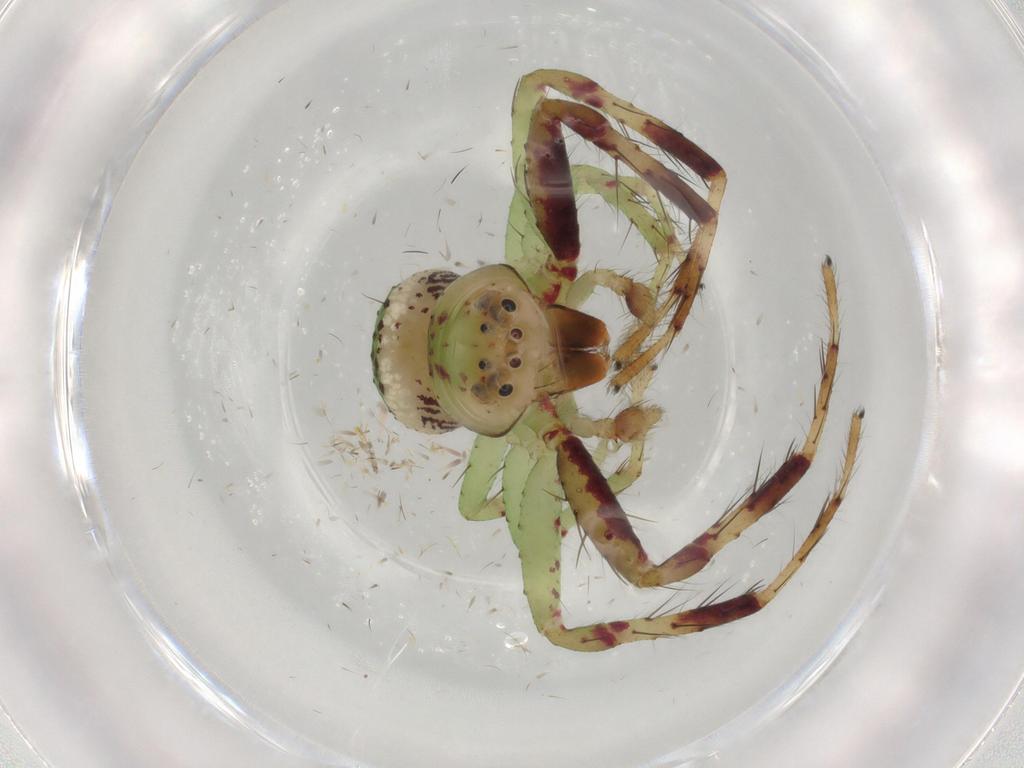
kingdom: Animalia
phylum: Arthropoda
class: Arachnida
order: Araneae
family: Thomisidae
